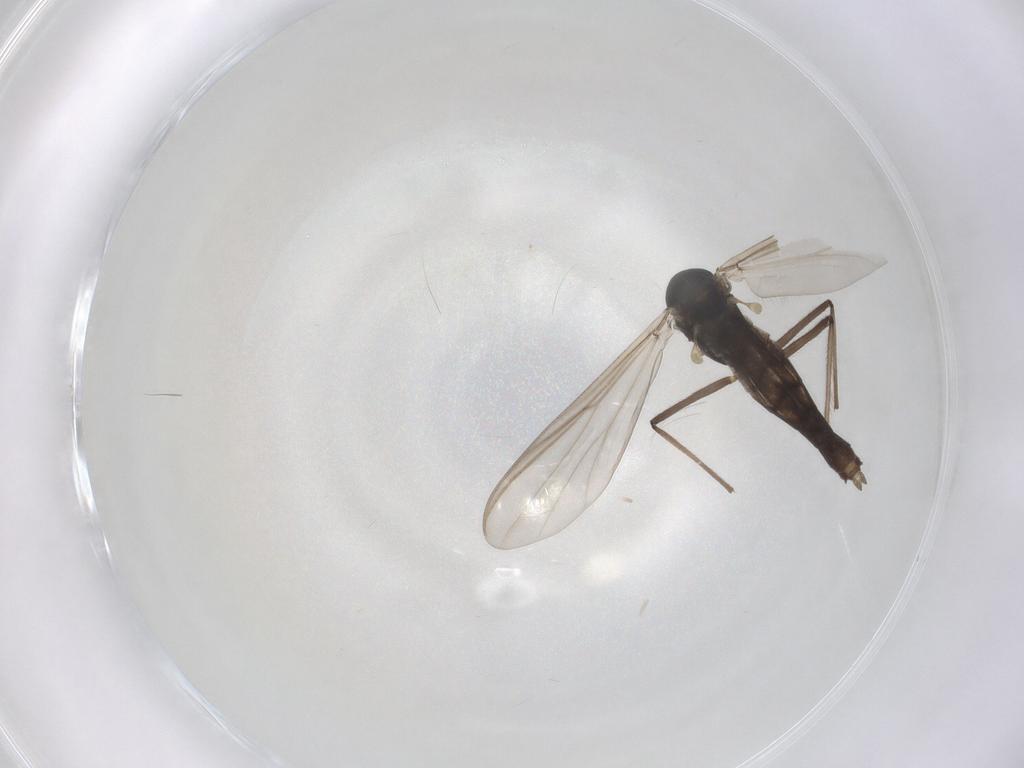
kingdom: Animalia
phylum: Arthropoda
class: Insecta
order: Diptera
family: Chironomidae
